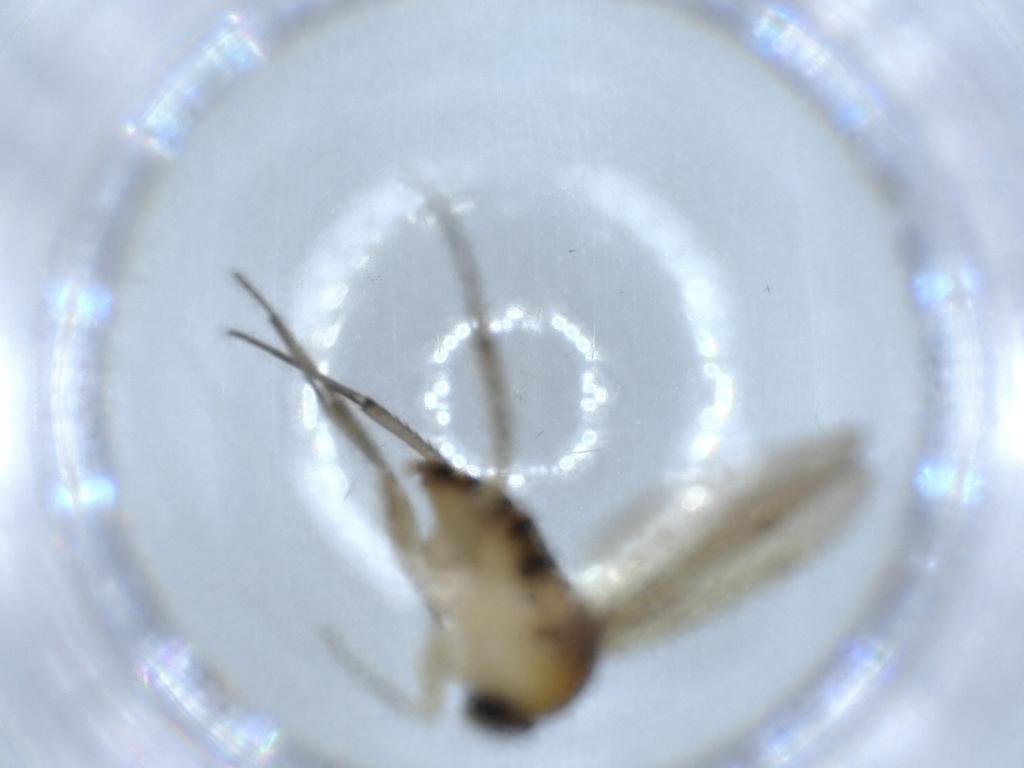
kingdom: Animalia
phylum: Arthropoda
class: Insecta
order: Diptera
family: Phoridae
